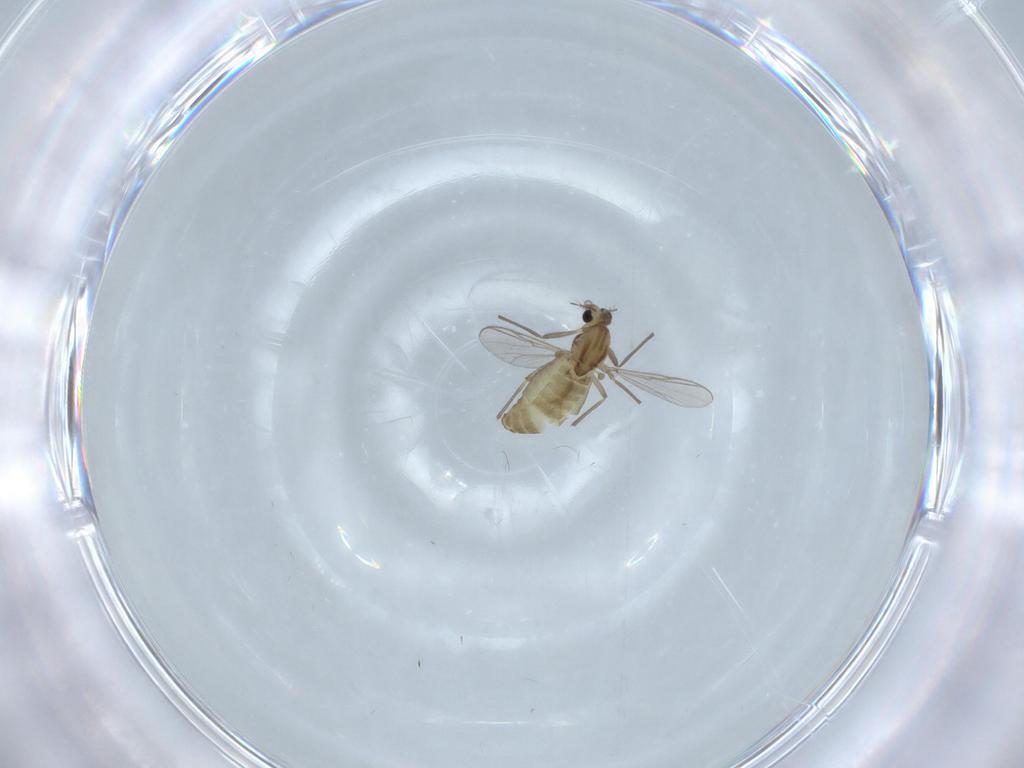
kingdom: Animalia
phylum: Arthropoda
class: Insecta
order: Diptera
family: Chironomidae
